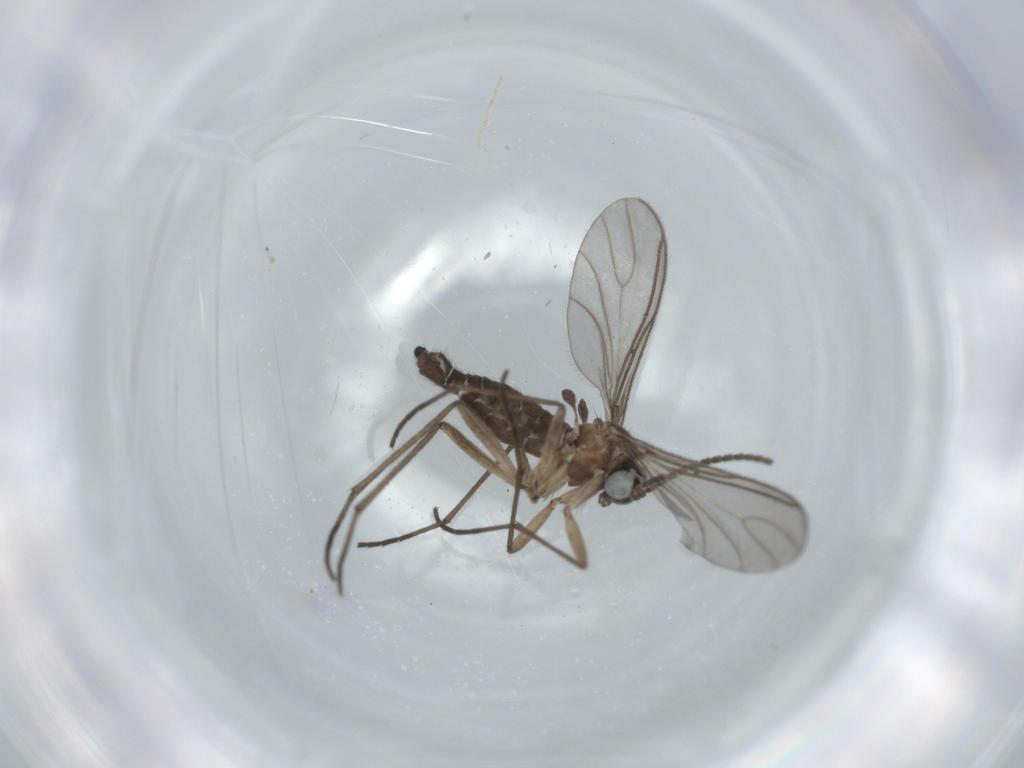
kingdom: Animalia
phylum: Arthropoda
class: Insecta
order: Diptera
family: Sciaridae
